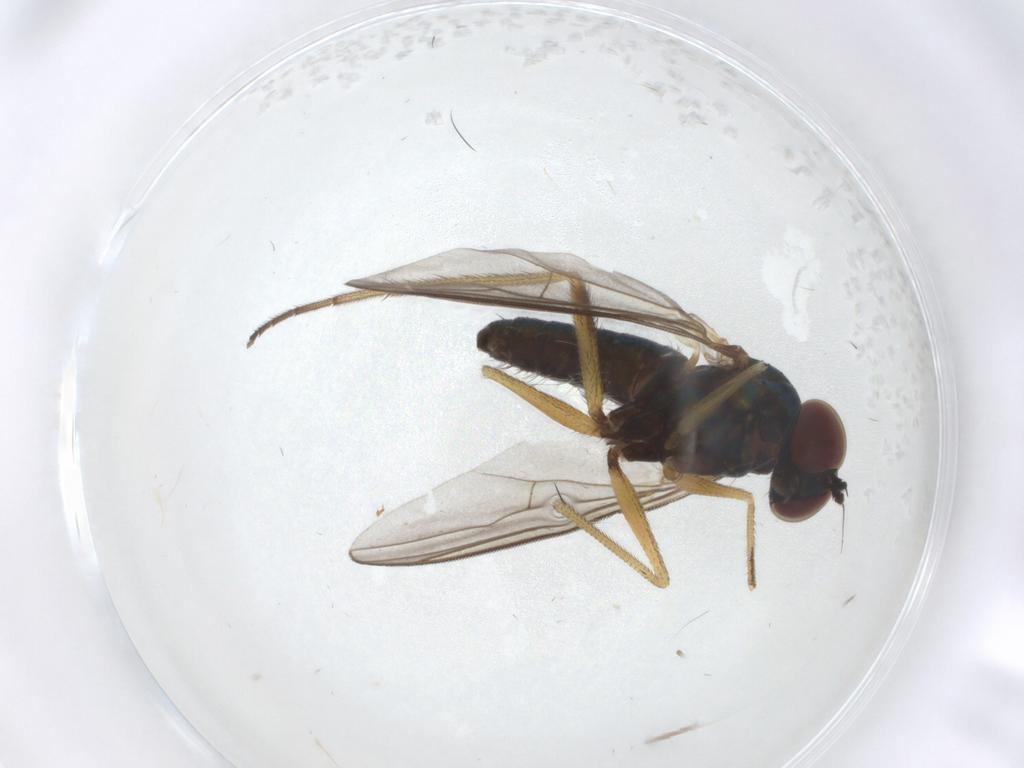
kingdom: Animalia
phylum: Arthropoda
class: Insecta
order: Diptera
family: Dolichopodidae
